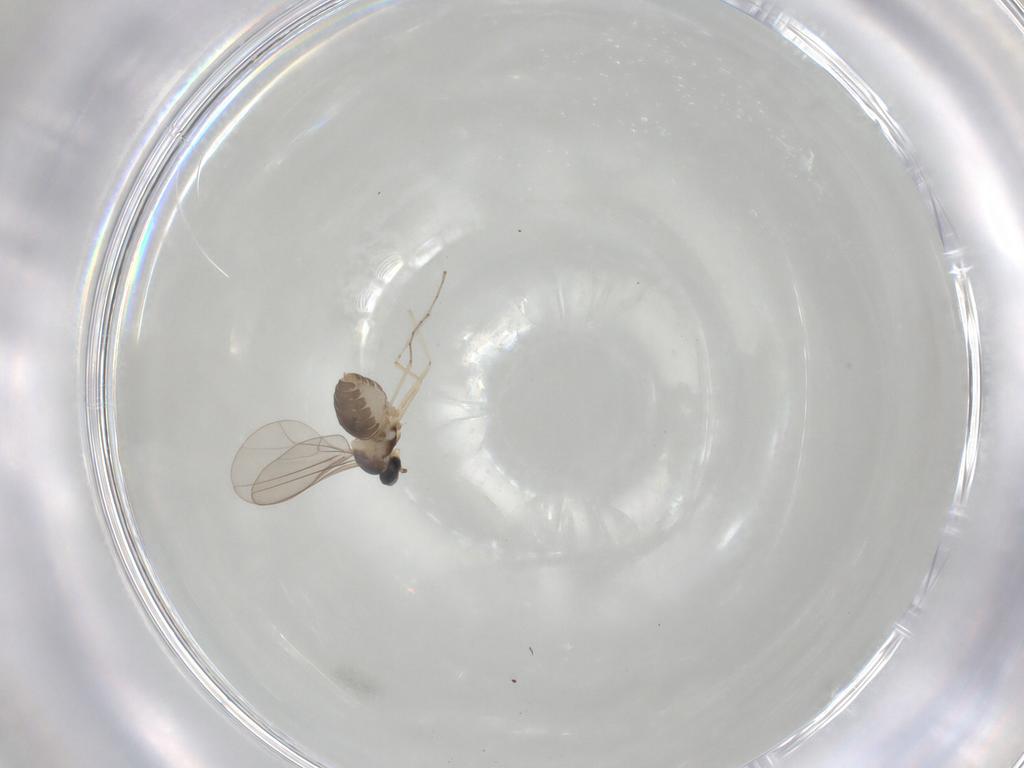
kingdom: Animalia
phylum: Arthropoda
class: Insecta
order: Diptera
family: Cecidomyiidae
